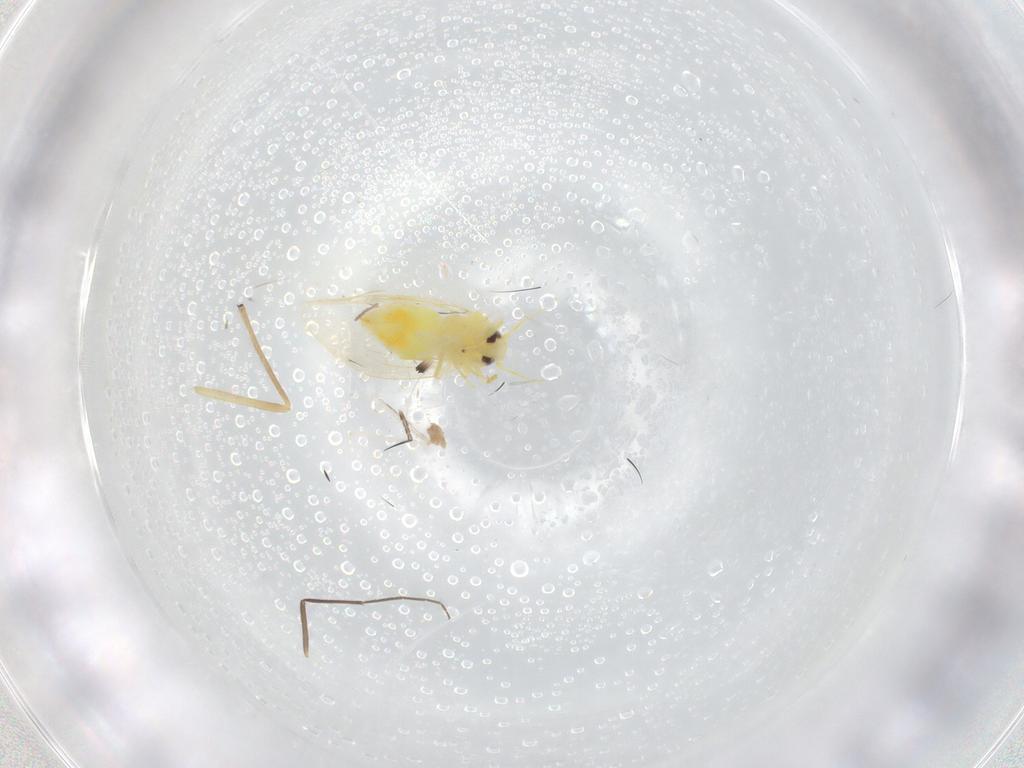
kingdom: Animalia
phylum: Arthropoda
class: Insecta
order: Hemiptera
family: Aleyrodidae
